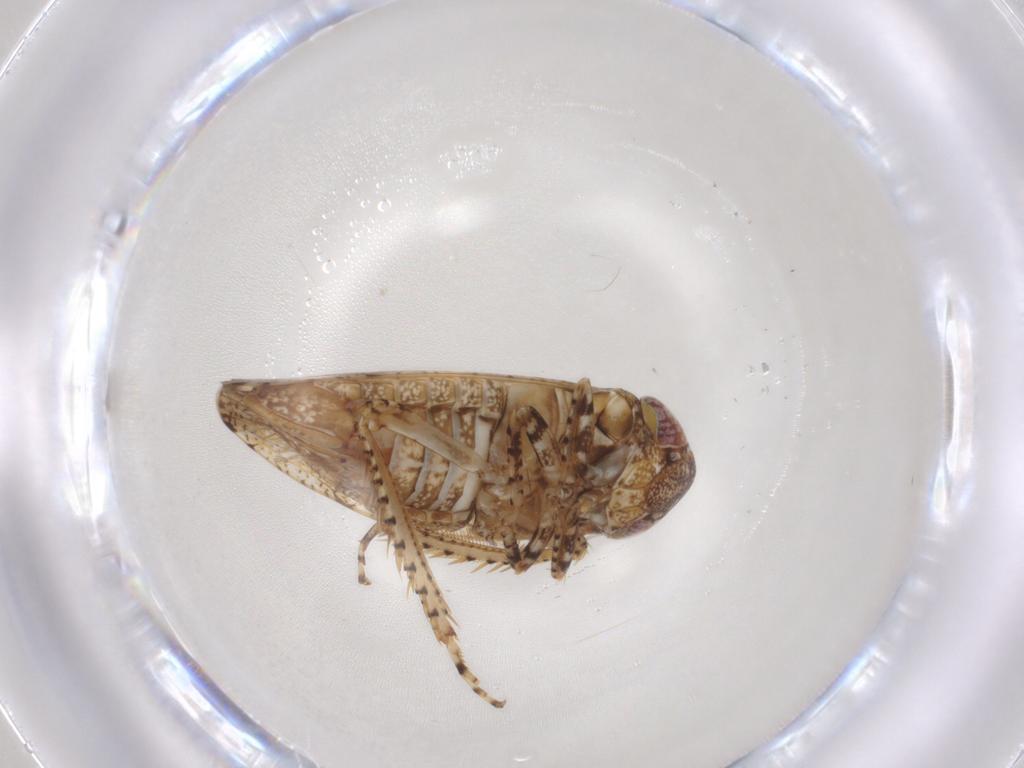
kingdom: Animalia
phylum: Arthropoda
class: Insecta
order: Hemiptera
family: Cicadellidae
